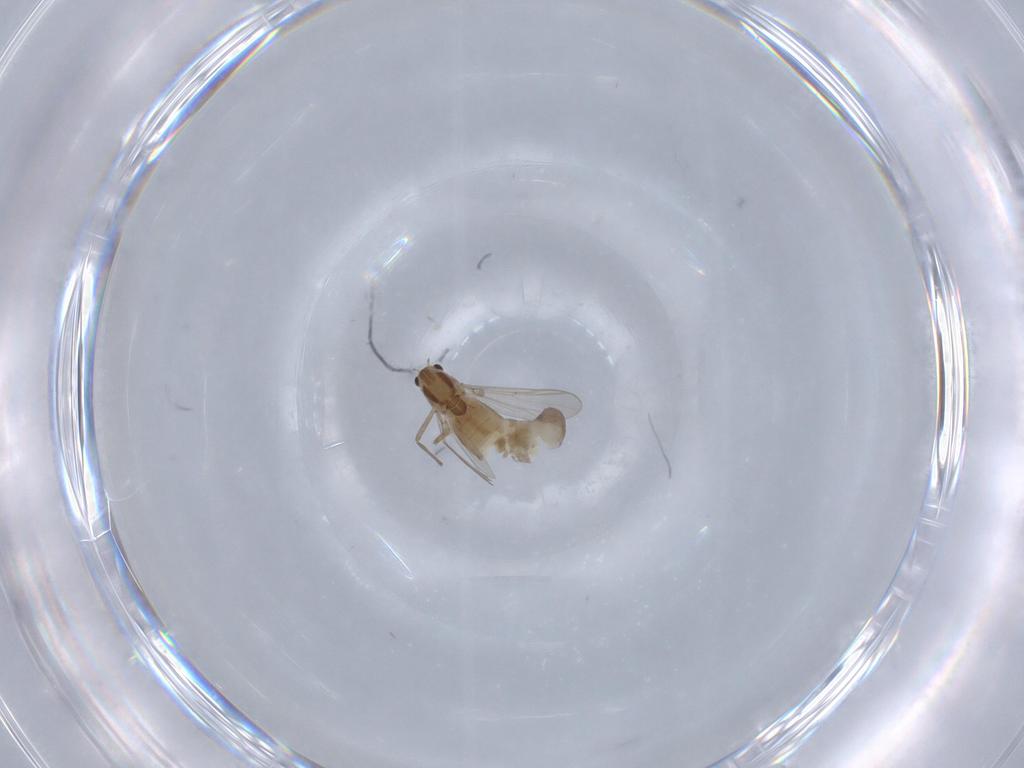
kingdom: Animalia
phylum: Arthropoda
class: Insecta
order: Diptera
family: Chironomidae
